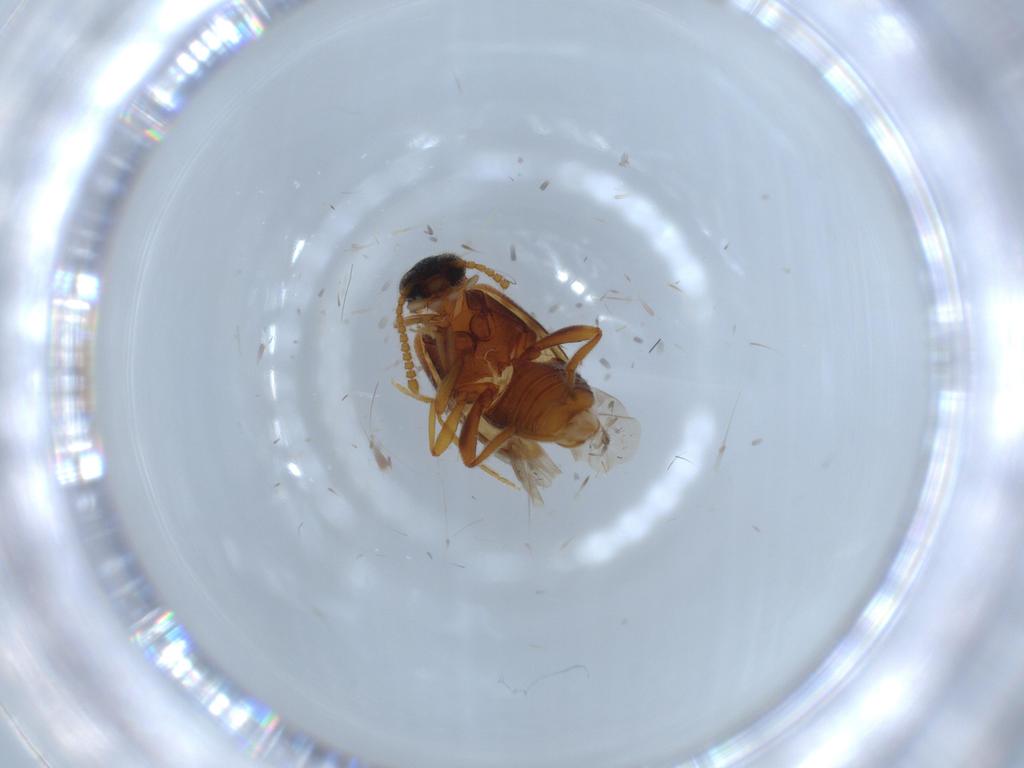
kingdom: Animalia
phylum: Arthropoda
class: Insecta
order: Coleoptera
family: Aderidae
